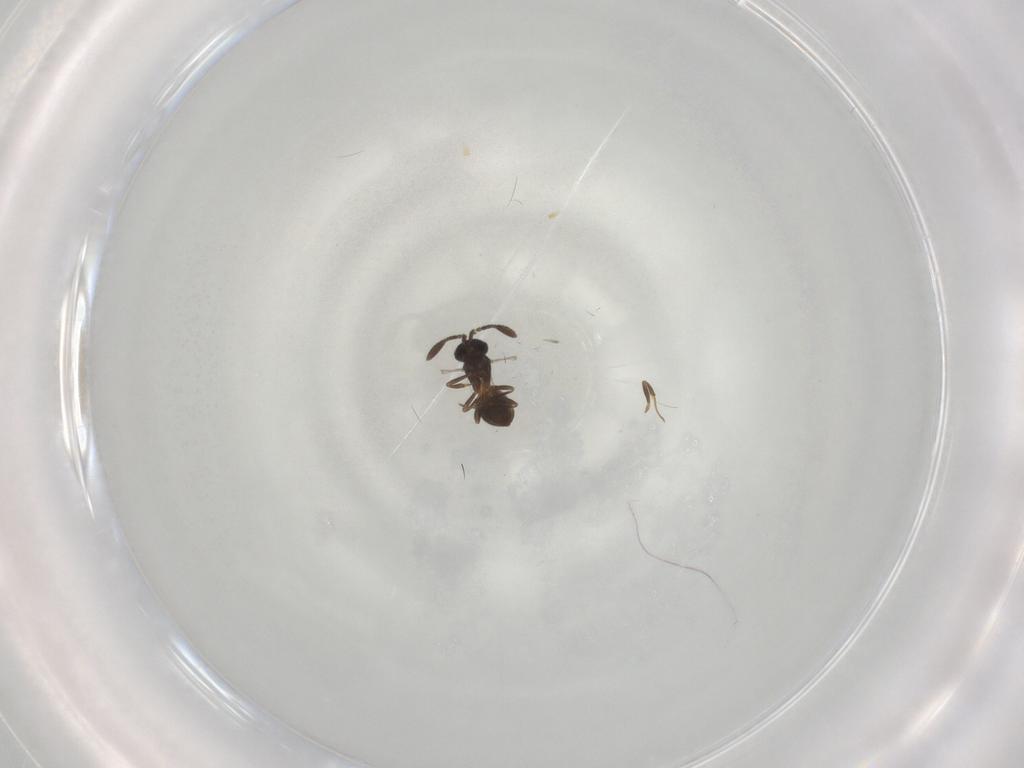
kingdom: Animalia
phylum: Arthropoda
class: Insecta
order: Hymenoptera
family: Scelionidae
